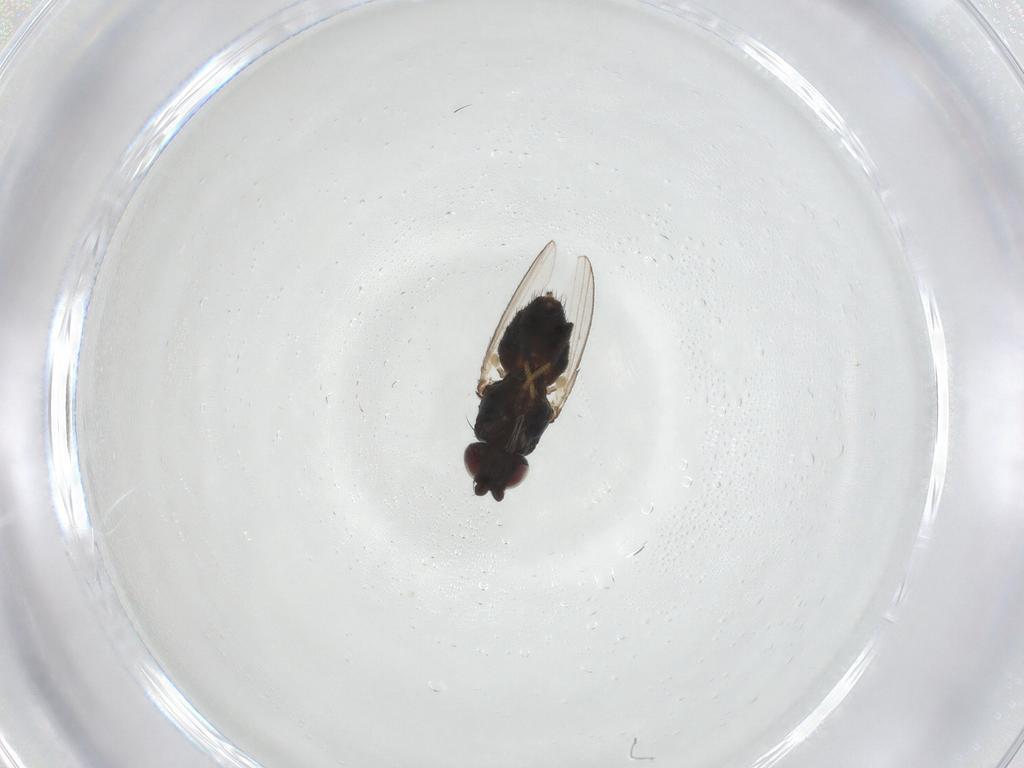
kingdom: Animalia
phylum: Arthropoda
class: Insecta
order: Diptera
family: Milichiidae
